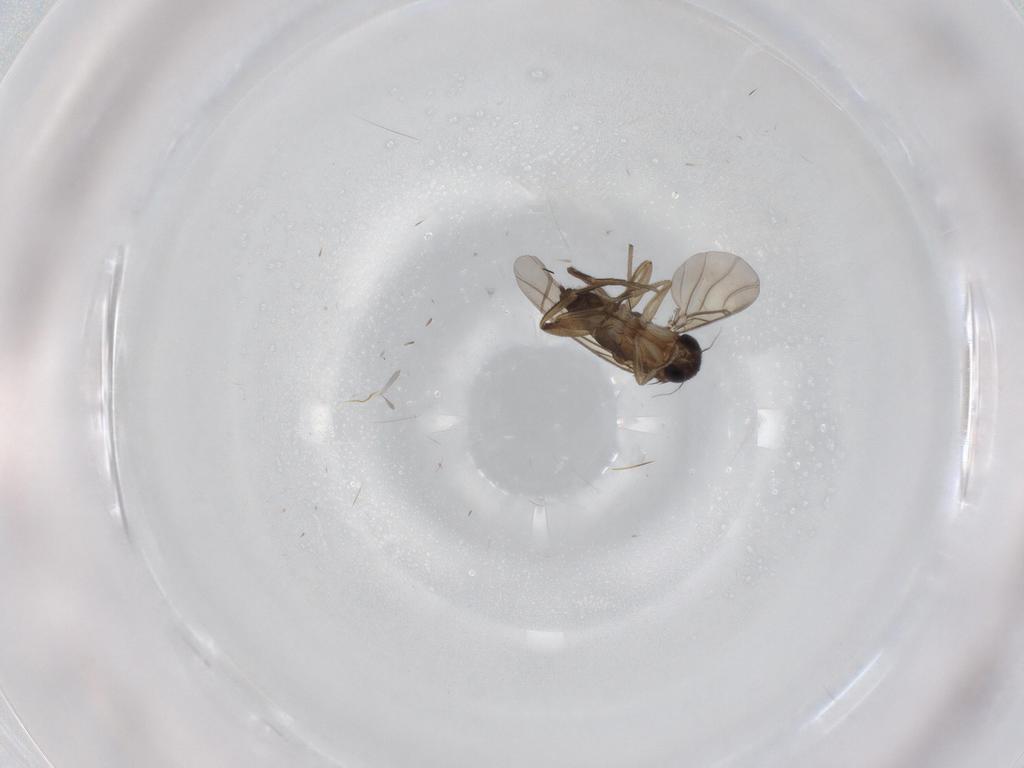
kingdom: Animalia
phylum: Arthropoda
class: Insecta
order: Diptera
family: Phoridae
